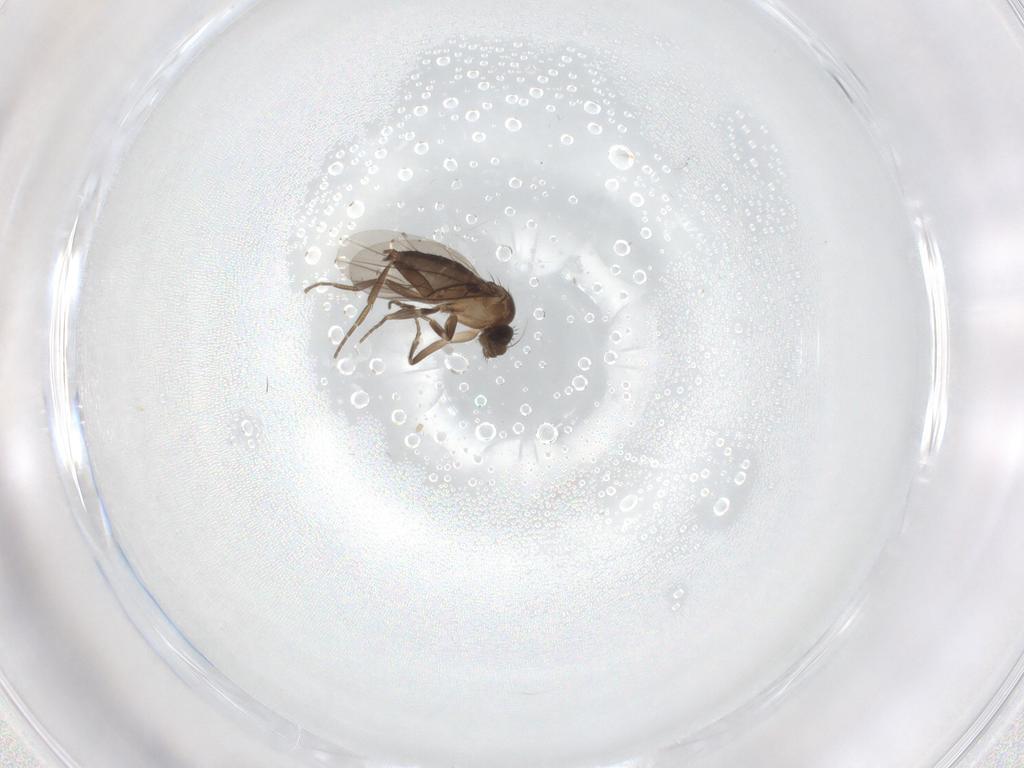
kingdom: Animalia
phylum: Arthropoda
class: Insecta
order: Diptera
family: Phoridae
